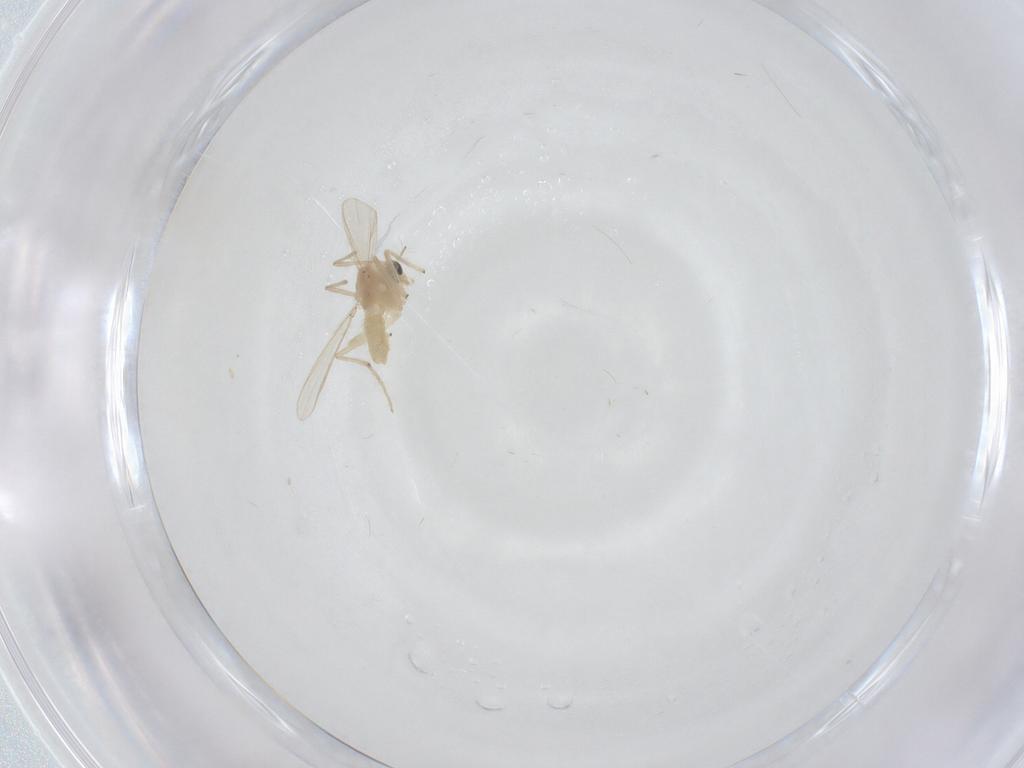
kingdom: Animalia
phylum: Arthropoda
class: Insecta
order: Diptera
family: Chironomidae
